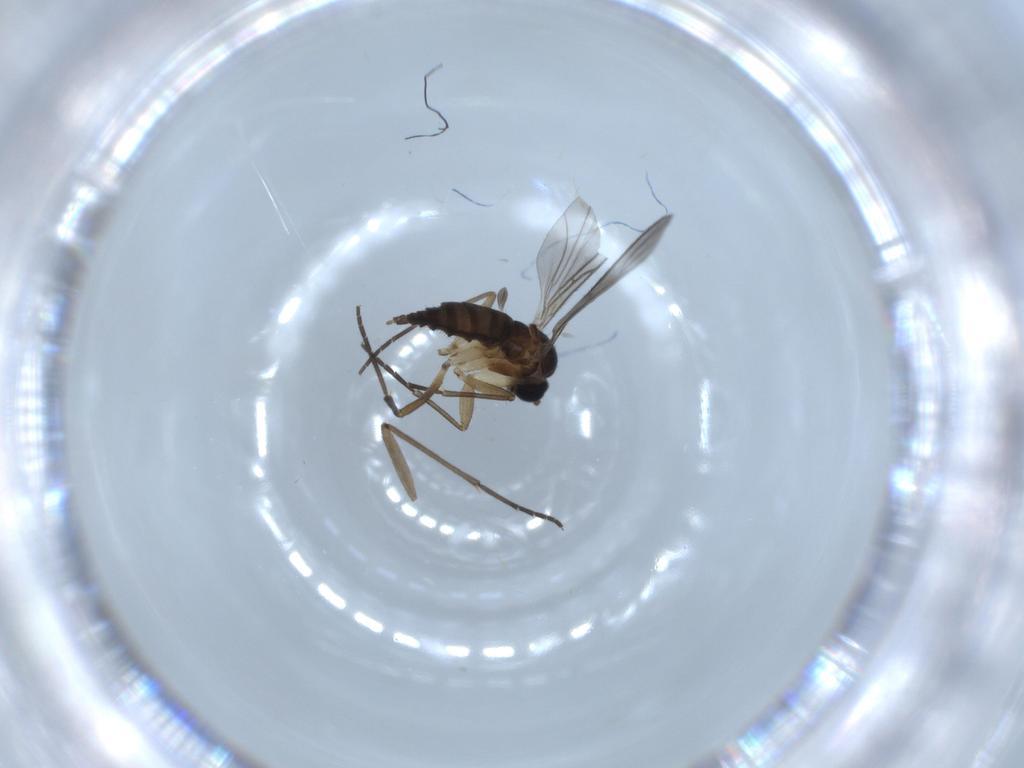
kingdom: Animalia
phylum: Arthropoda
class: Insecta
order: Diptera
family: Sciaridae
